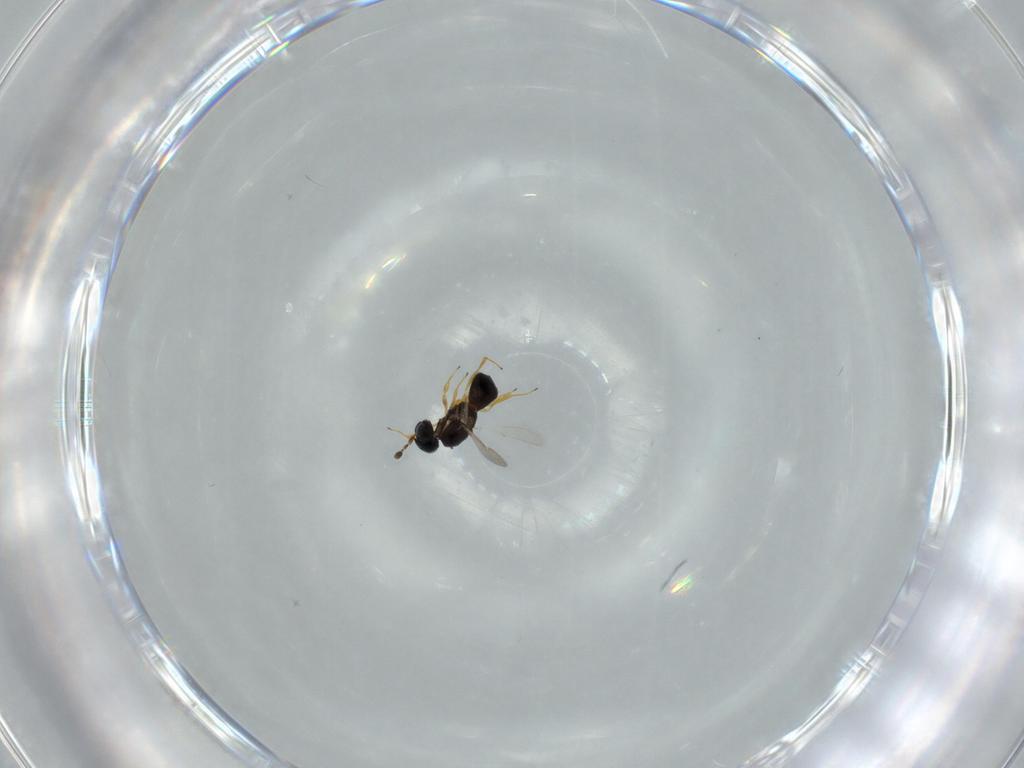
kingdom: Animalia
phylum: Arthropoda
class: Insecta
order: Hymenoptera
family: Scelionidae
